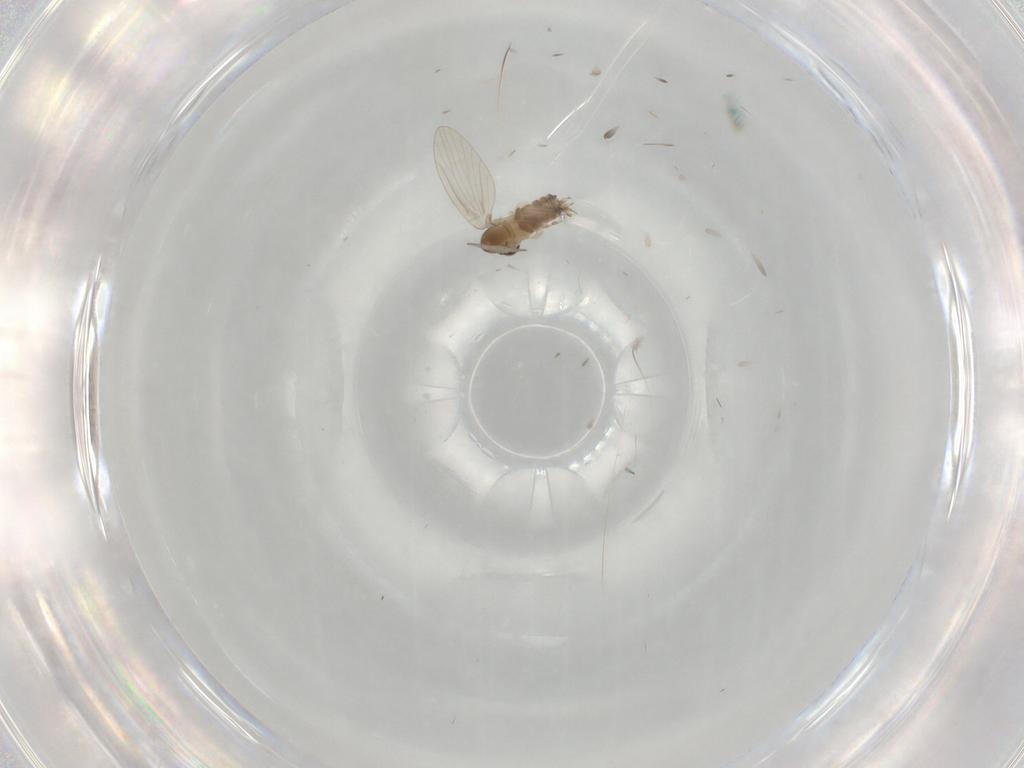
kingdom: Animalia
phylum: Arthropoda
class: Insecta
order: Diptera
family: Psychodidae
